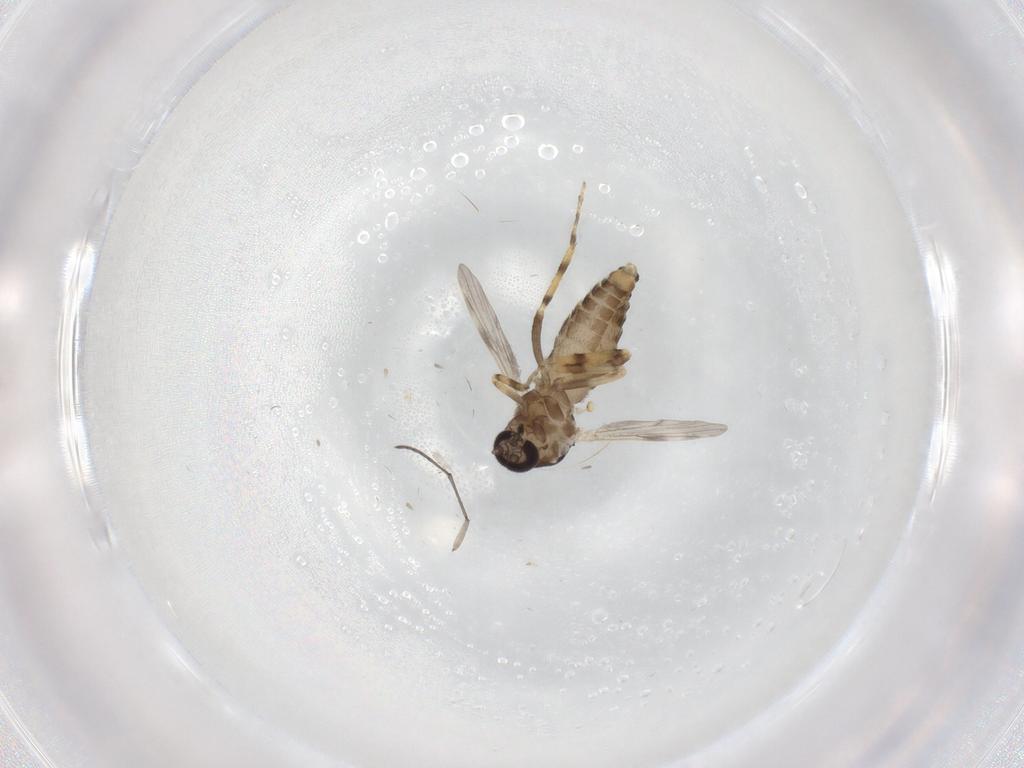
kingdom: Animalia
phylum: Arthropoda
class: Insecta
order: Diptera
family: Ceratopogonidae
